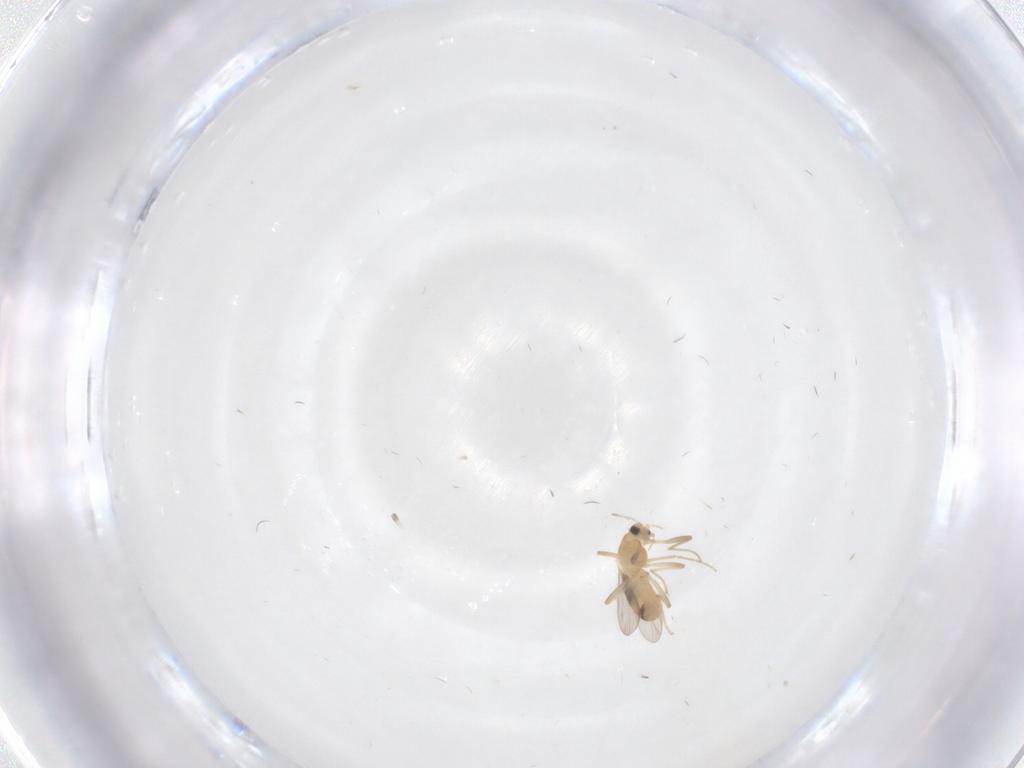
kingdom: Animalia
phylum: Arthropoda
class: Insecta
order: Diptera
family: Chironomidae
